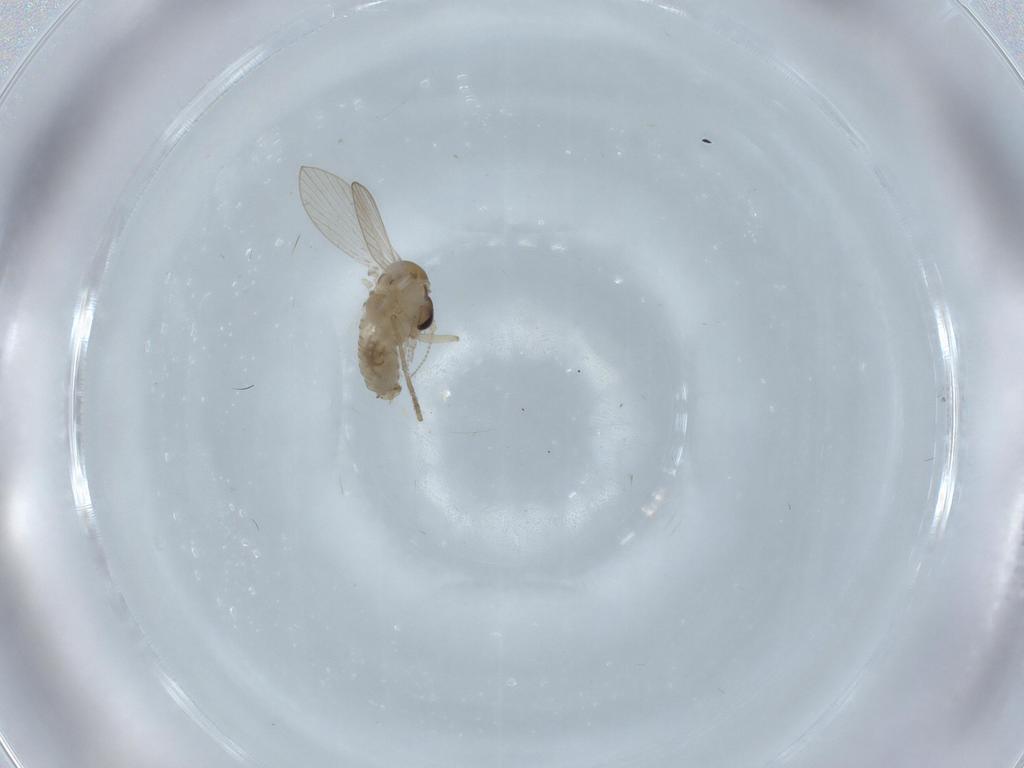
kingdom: Animalia
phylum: Arthropoda
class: Insecta
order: Diptera
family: Psychodidae
